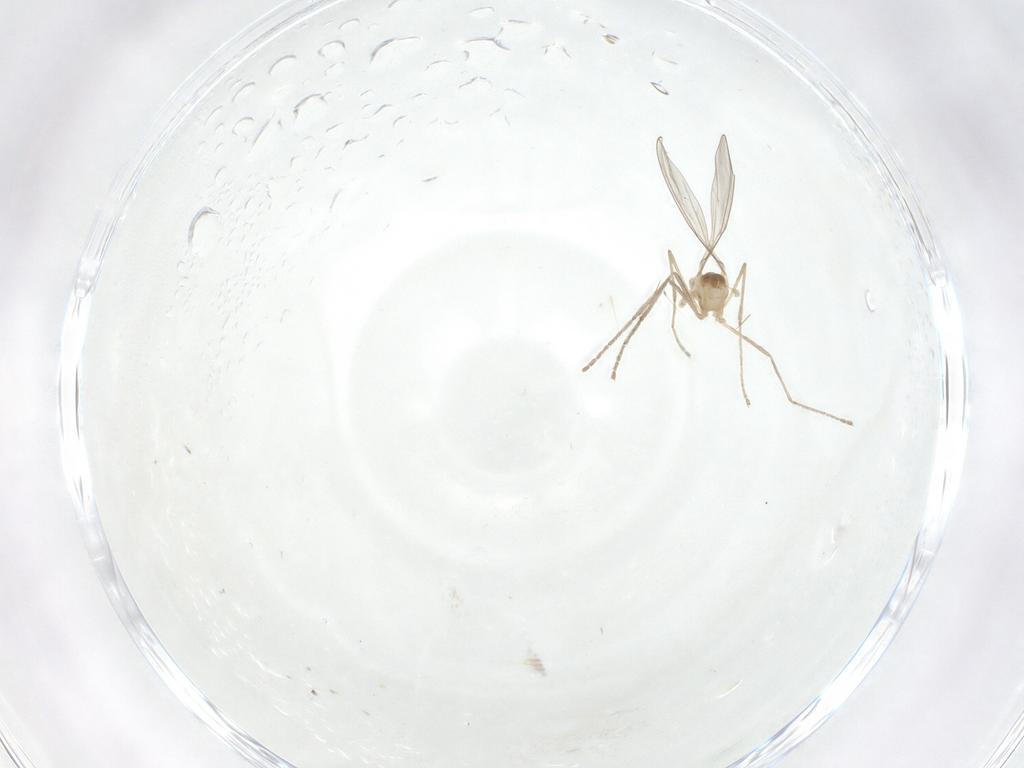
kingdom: Animalia
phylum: Arthropoda
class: Insecta
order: Diptera
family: Cecidomyiidae
